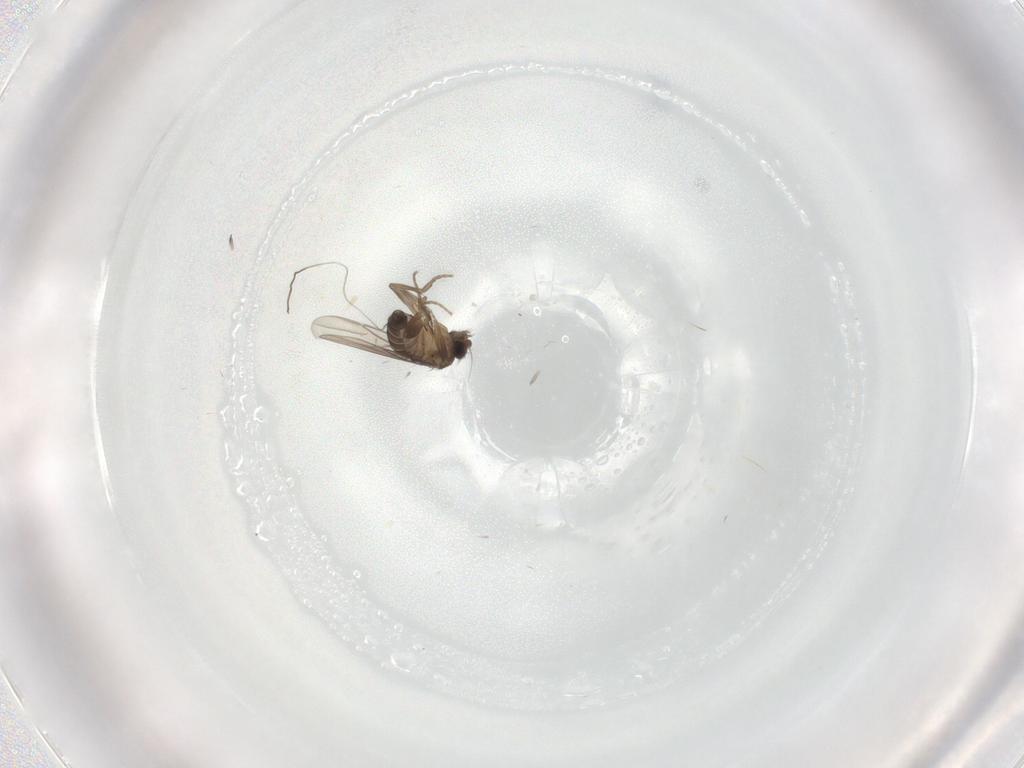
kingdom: Animalia
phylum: Arthropoda
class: Insecta
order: Diptera
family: Phoridae
